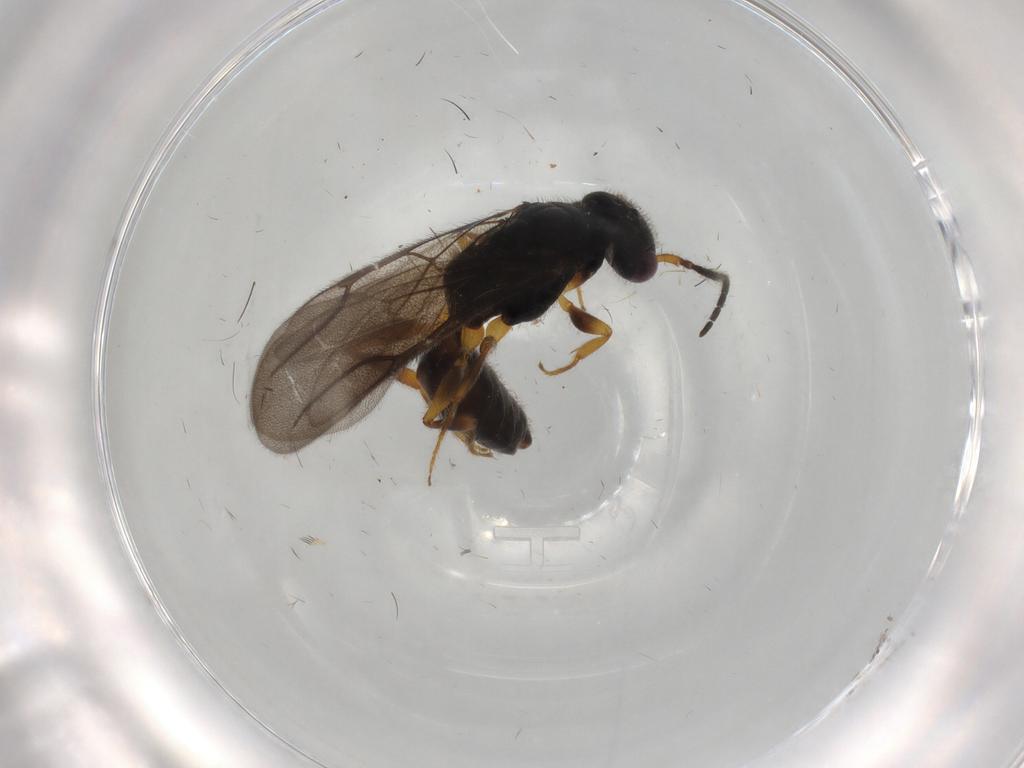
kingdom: Animalia
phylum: Arthropoda
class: Insecta
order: Hymenoptera
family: Bethylidae
